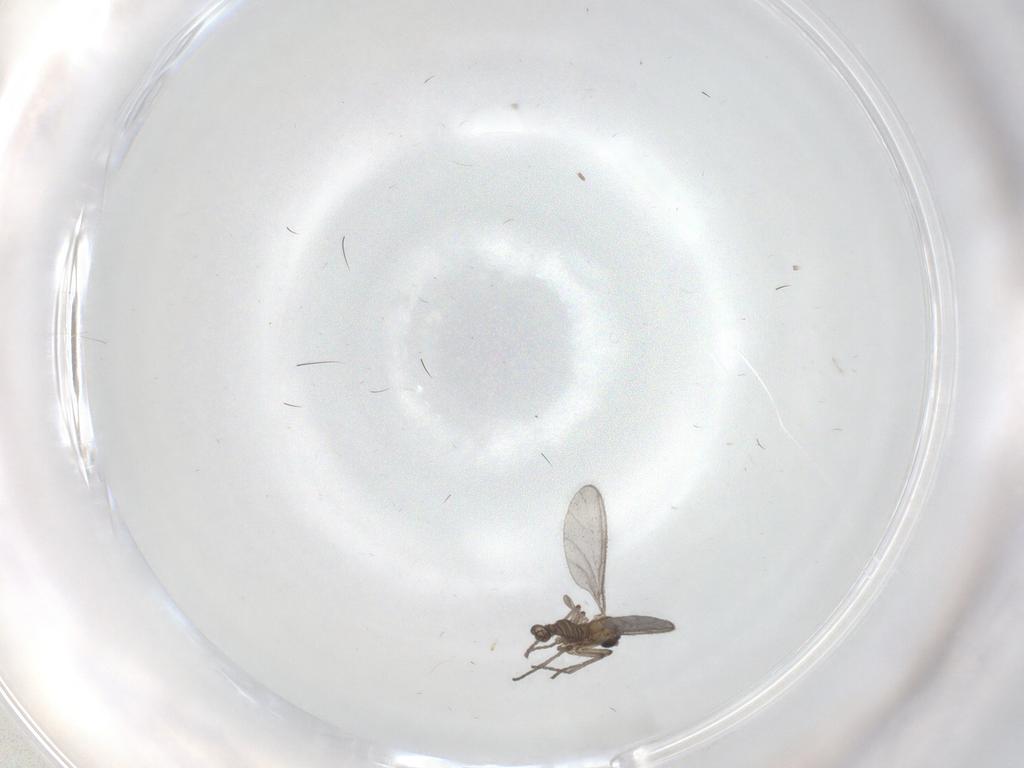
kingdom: Animalia
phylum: Arthropoda
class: Insecta
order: Diptera
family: Sciaridae
